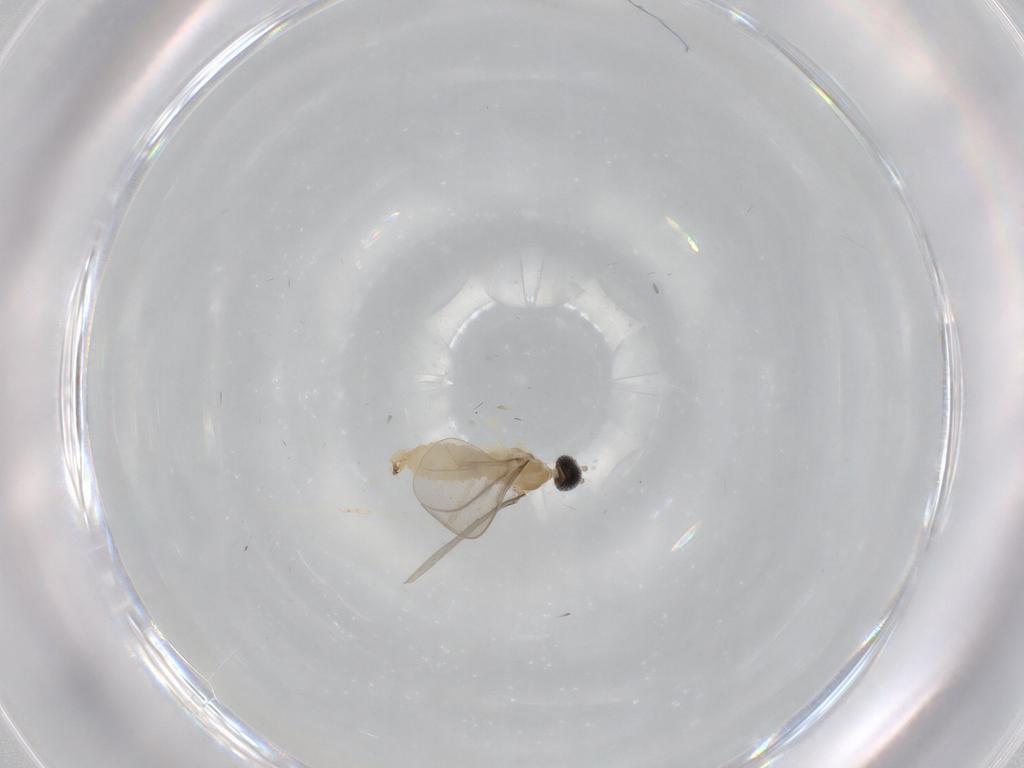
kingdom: Animalia
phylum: Arthropoda
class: Insecta
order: Diptera
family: Cecidomyiidae
